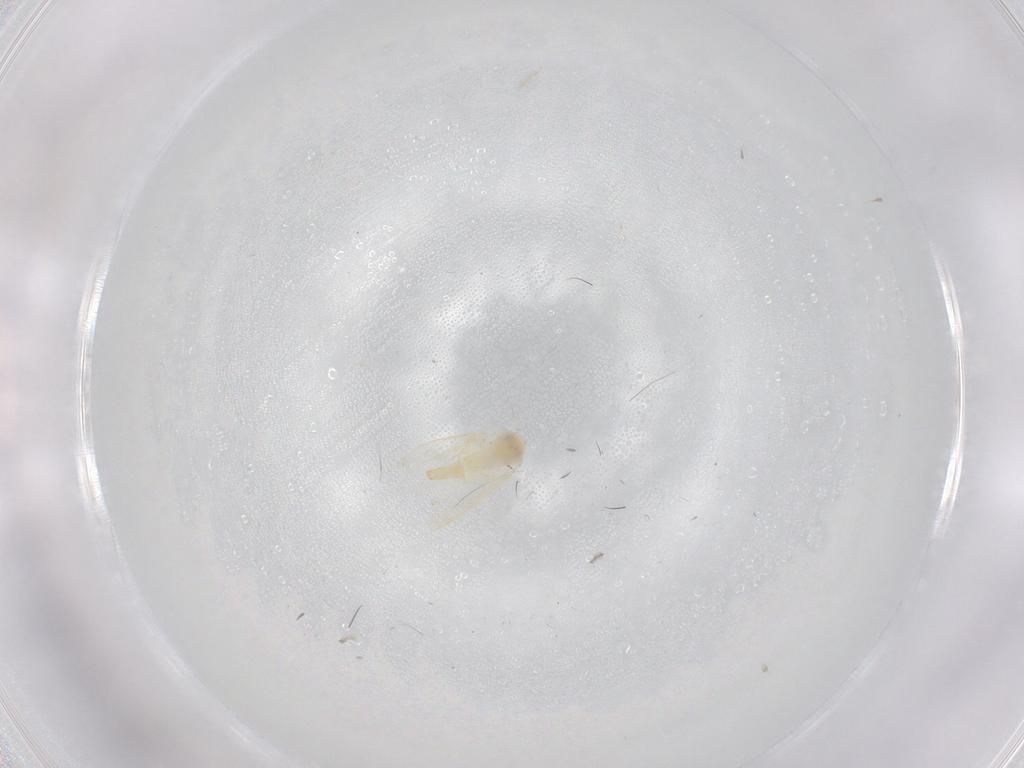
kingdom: Animalia
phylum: Arthropoda
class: Insecta
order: Hemiptera
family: Aleyrodidae
